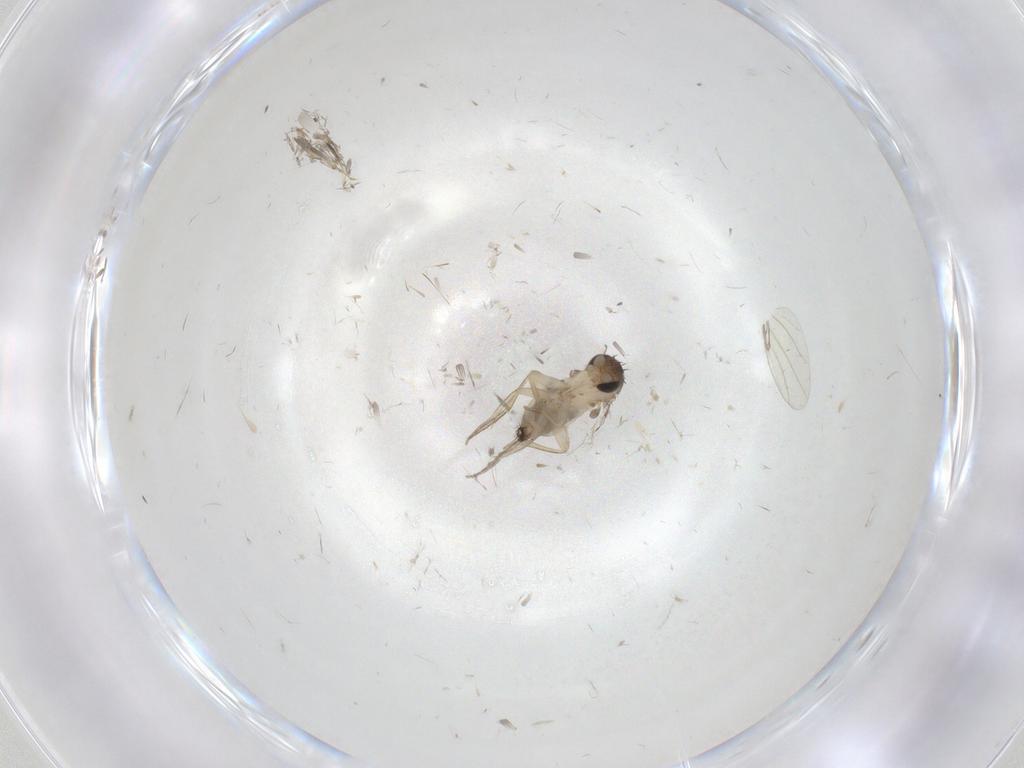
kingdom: Animalia
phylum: Arthropoda
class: Insecta
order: Diptera
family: Phoridae
